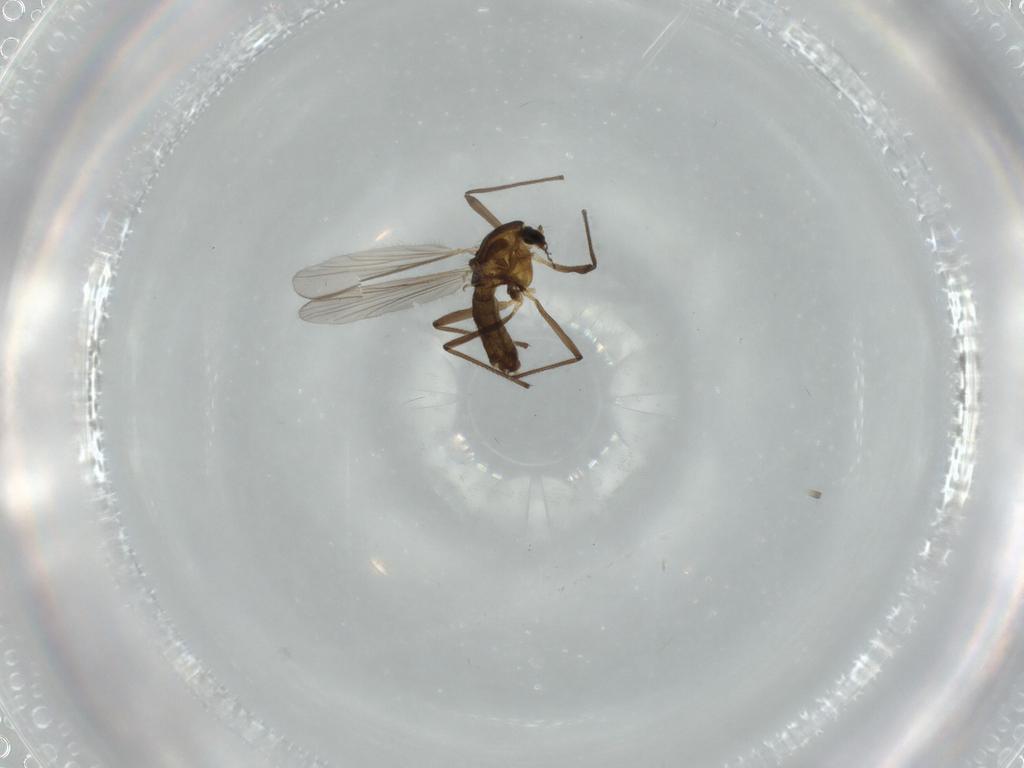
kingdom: Animalia
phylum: Arthropoda
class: Insecta
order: Diptera
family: Chironomidae
